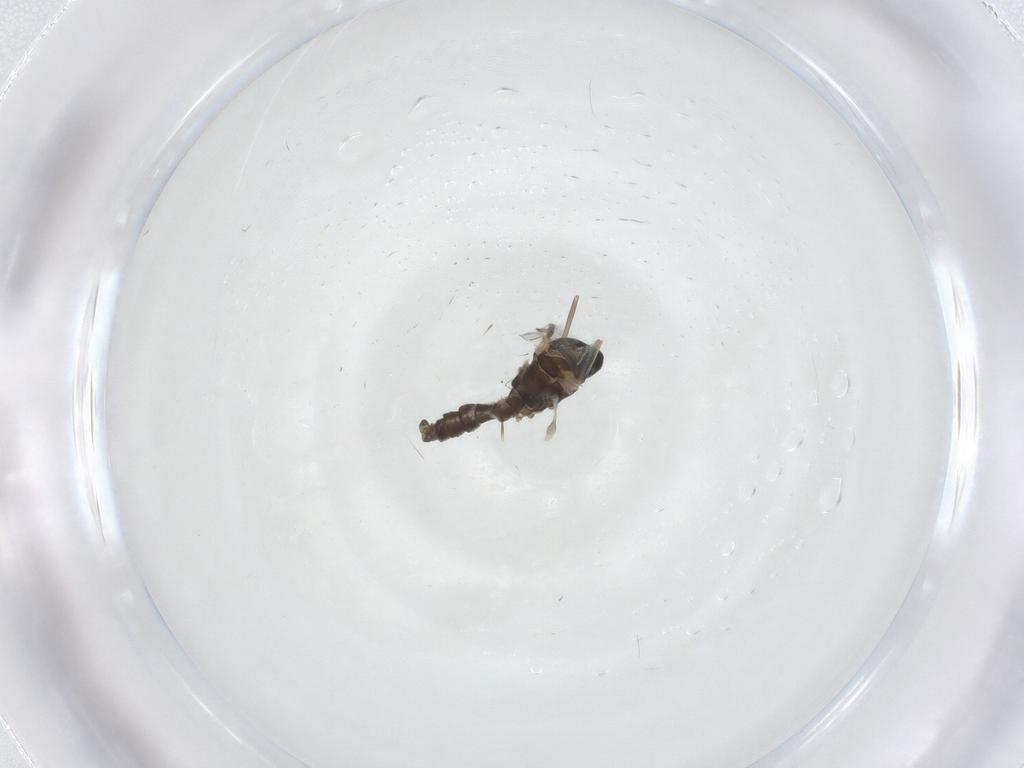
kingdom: Animalia
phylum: Arthropoda
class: Insecta
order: Diptera
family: Cecidomyiidae
